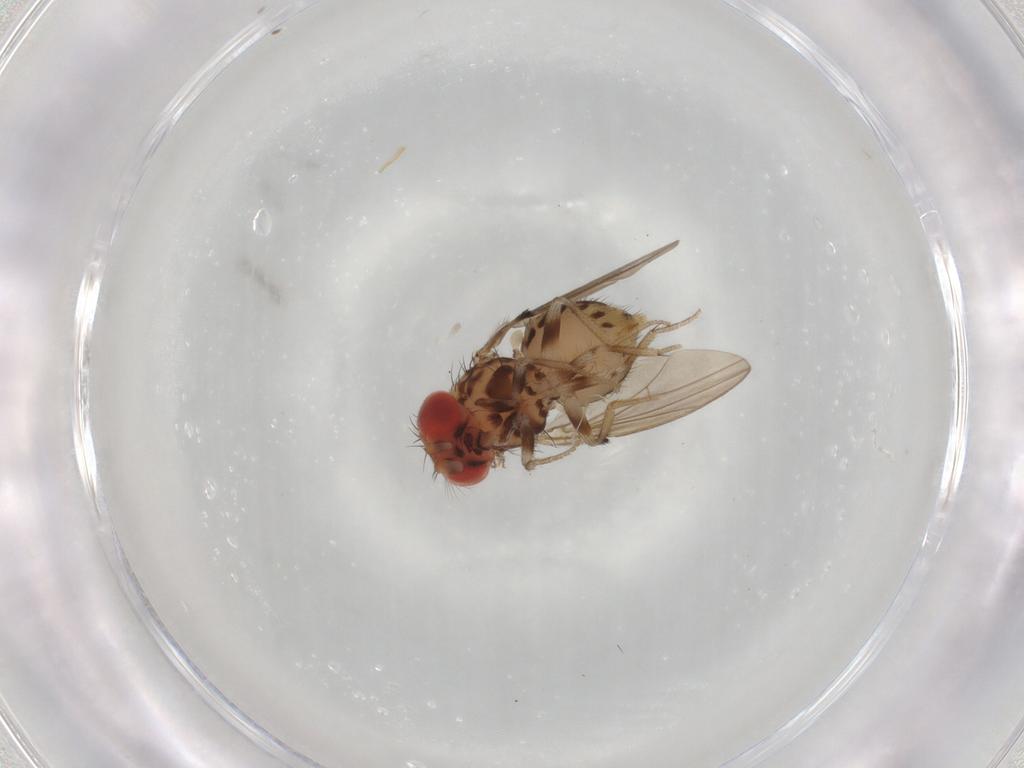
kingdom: Animalia
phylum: Arthropoda
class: Insecta
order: Diptera
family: Drosophilidae
